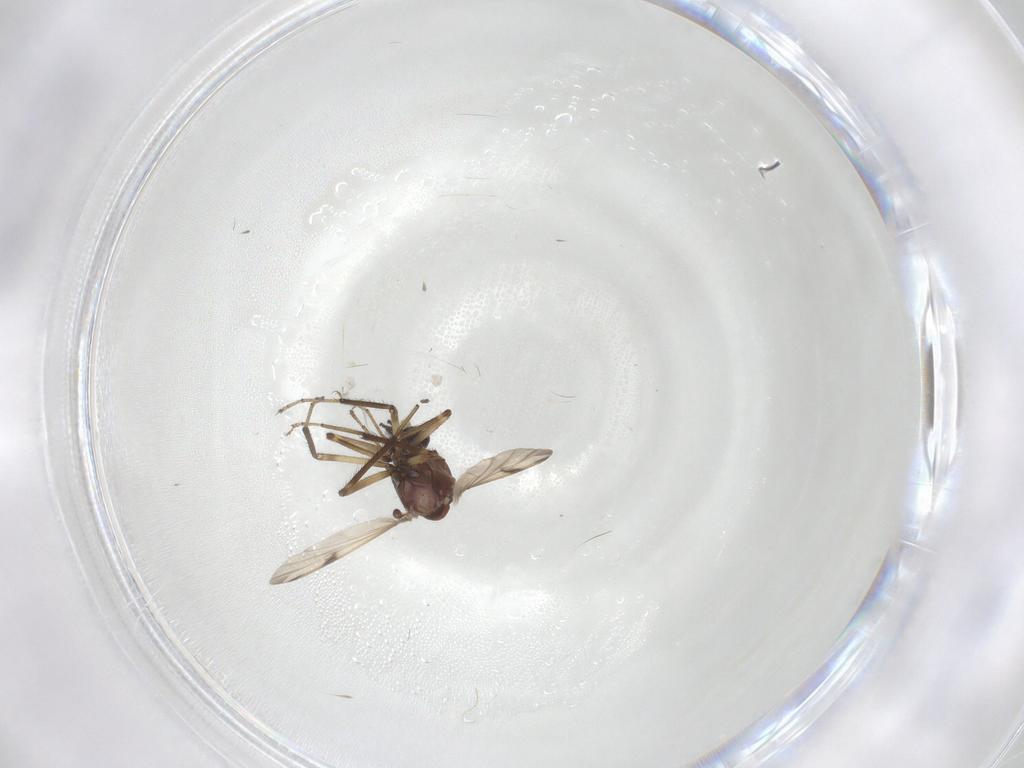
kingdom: Animalia
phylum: Arthropoda
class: Insecta
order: Diptera
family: Ceratopogonidae
